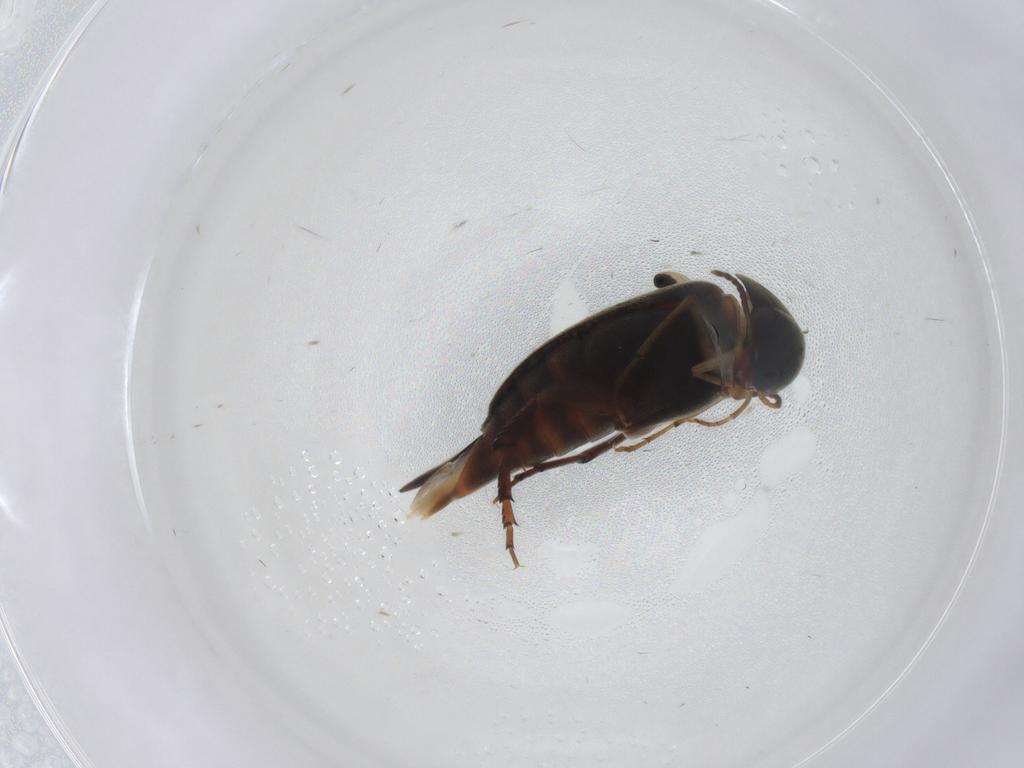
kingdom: Animalia
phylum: Arthropoda
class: Insecta
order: Coleoptera
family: Mordellidae
